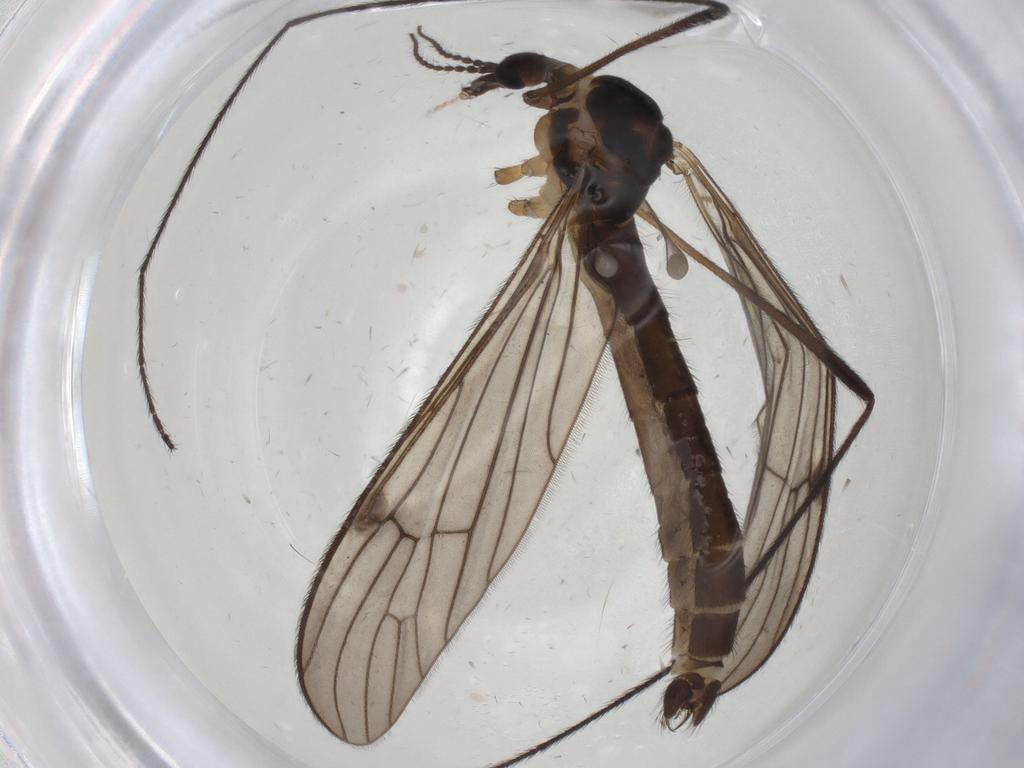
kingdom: Animalia
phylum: Arthropoda
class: Insecta
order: Diptera
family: Limoniidae
